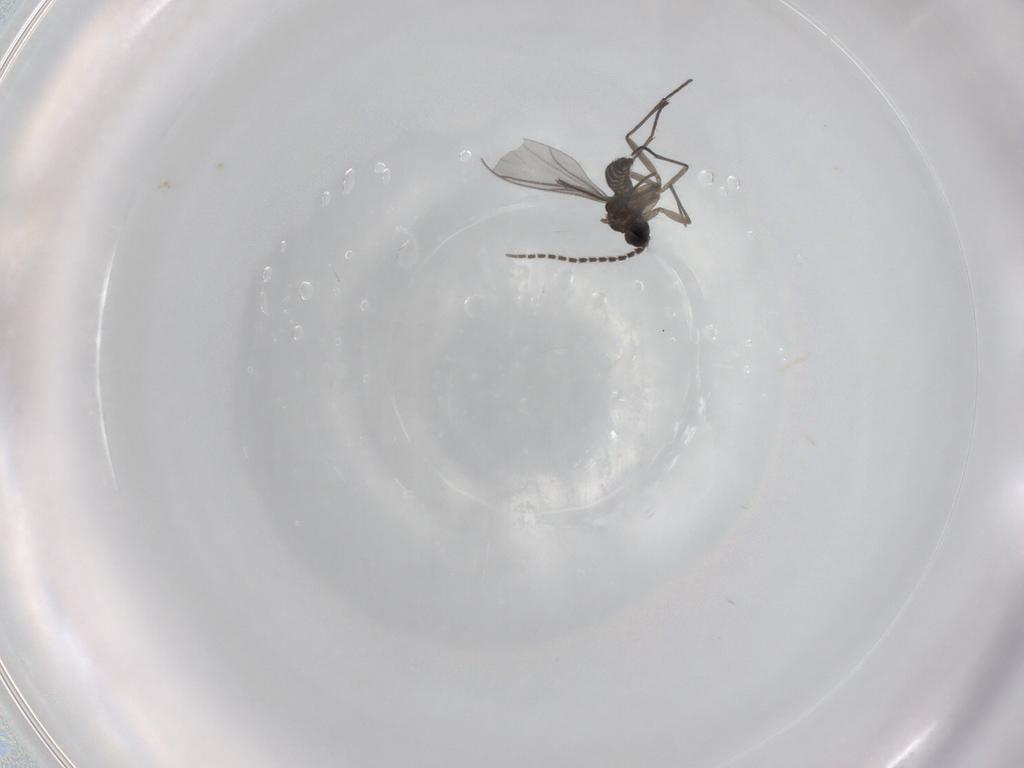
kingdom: Animalia
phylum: Arthropoda
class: Insecta
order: Diptera
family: Sciaridae
